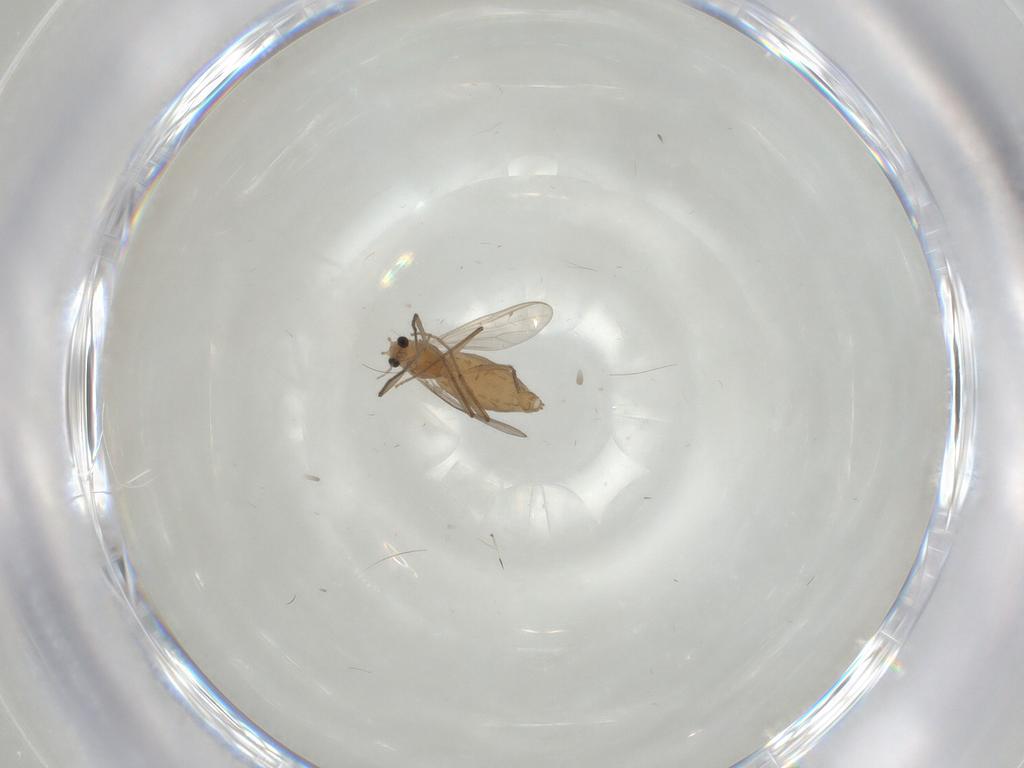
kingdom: Animalia
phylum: Arthropoda
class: Insecta
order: Diptera
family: Chironomidae
